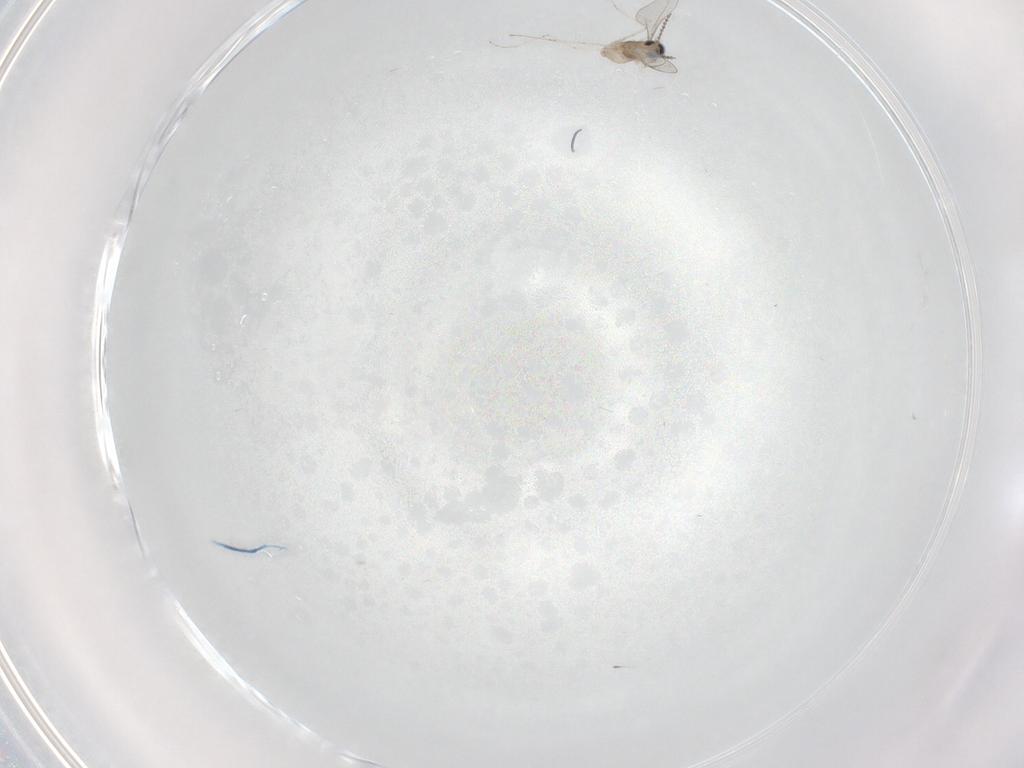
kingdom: Animalia
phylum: Arthropoda
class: Insecta
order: Diptera
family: Cecidomyiidae
